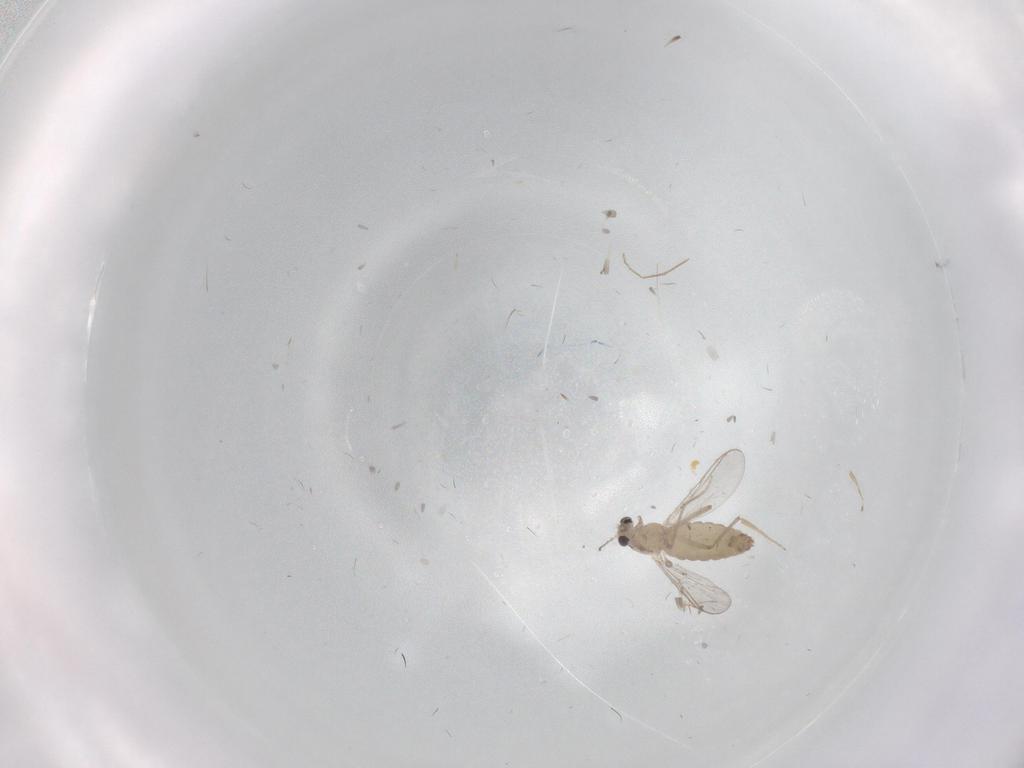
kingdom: Animalia
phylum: Arthropoda
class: Insecta
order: Diptera
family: Chironomidae
